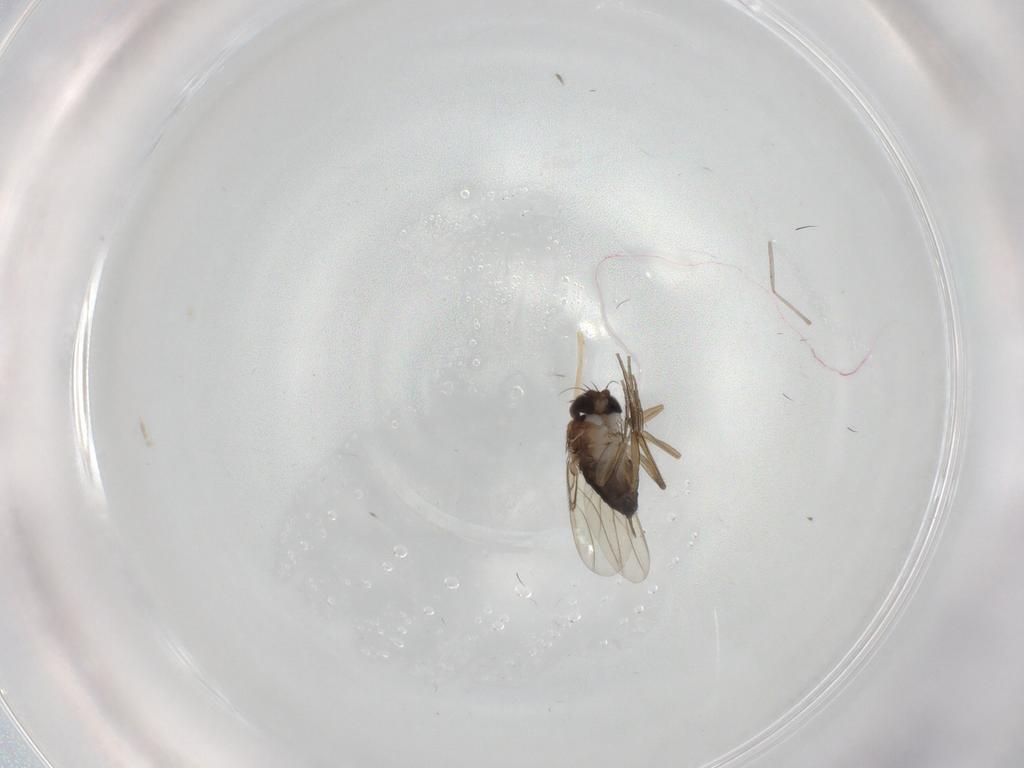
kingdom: Animalia
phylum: Arthropoda
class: Insecta
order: Diptera
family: Phoridae
